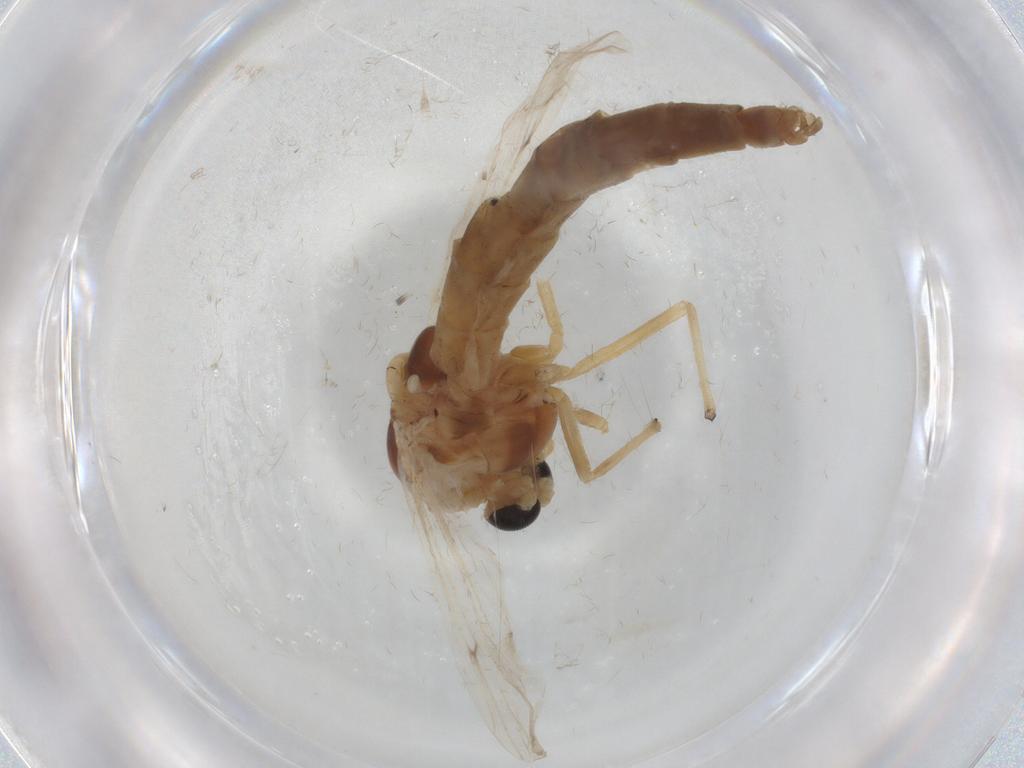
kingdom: Animalia
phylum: Arthropoda
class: Insecta
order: Diptera
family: Chironomidae
